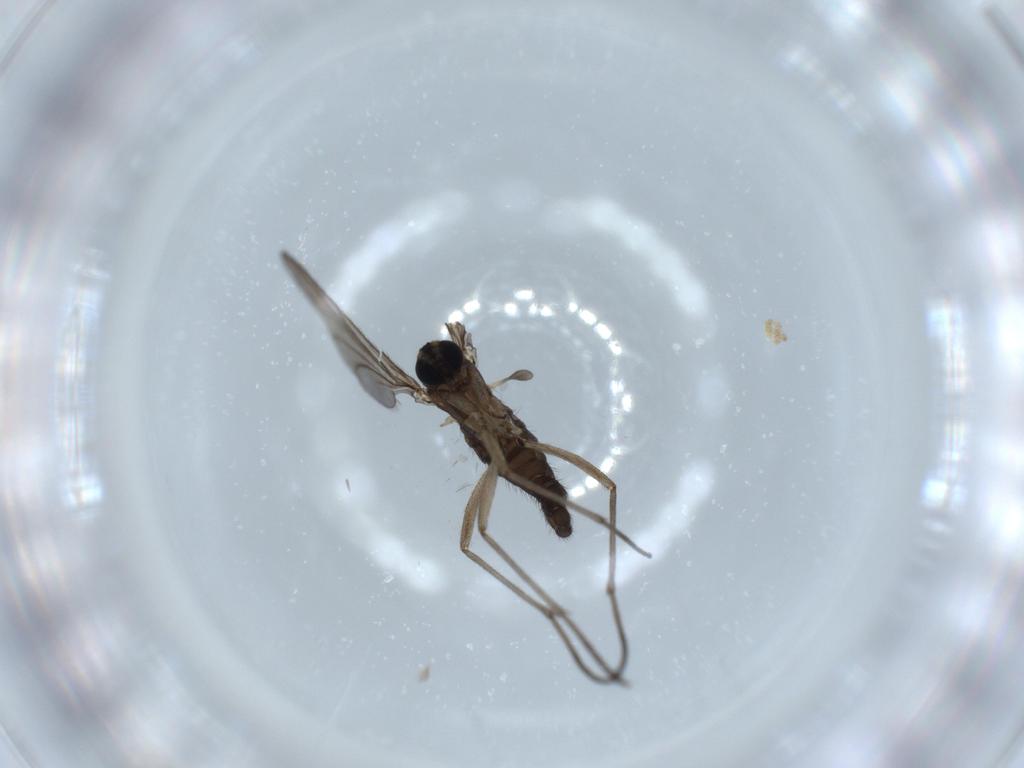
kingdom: Animalia
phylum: Arthropoda
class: Insecta
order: Diptera
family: Sciaridae
